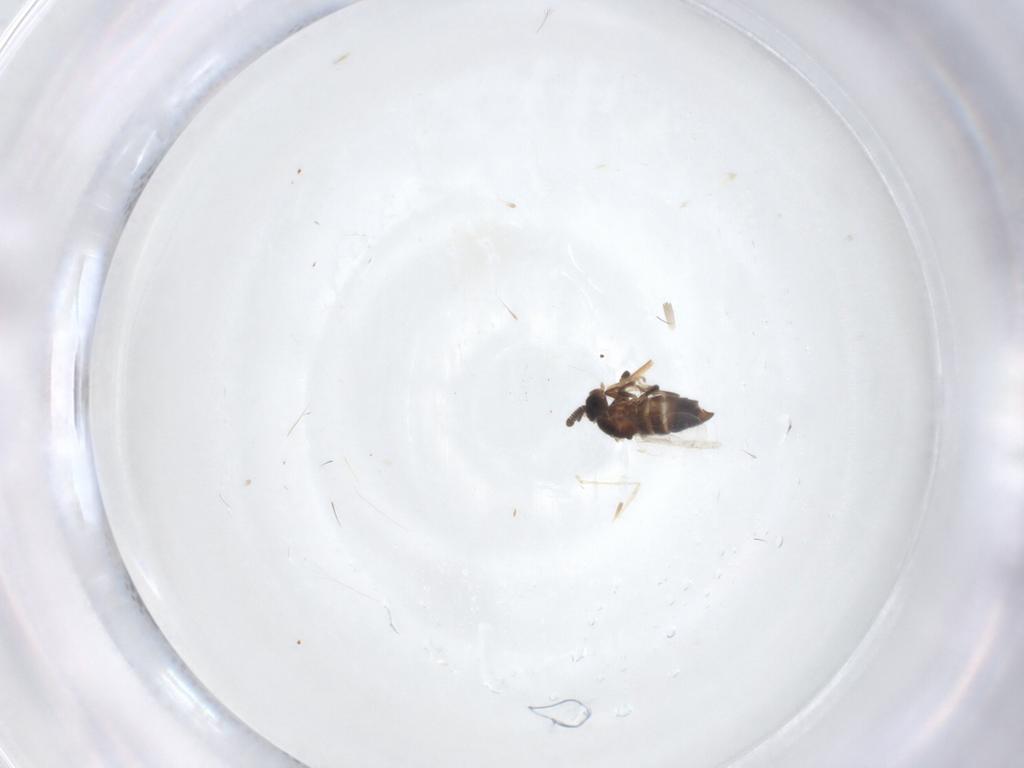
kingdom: Animalia
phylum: Arthropoda
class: Insecta
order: Diptera
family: Scatopsidae
